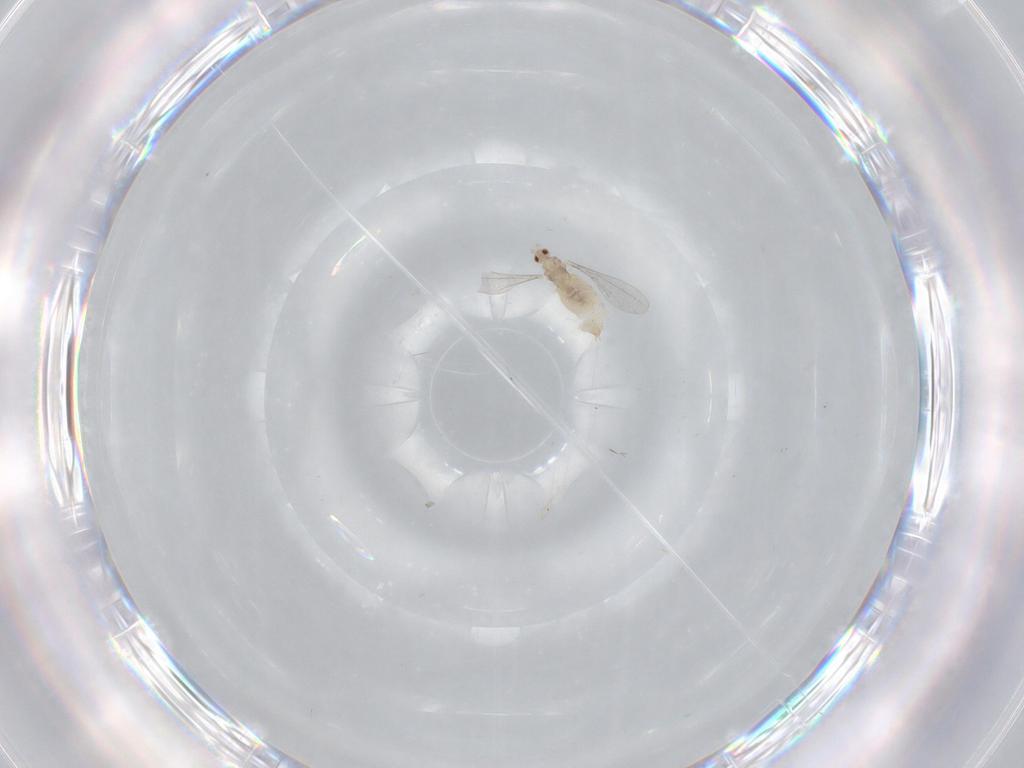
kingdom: Animalia
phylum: Arthropoda
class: Insecta
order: Diptera
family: Cecidomyiidae
